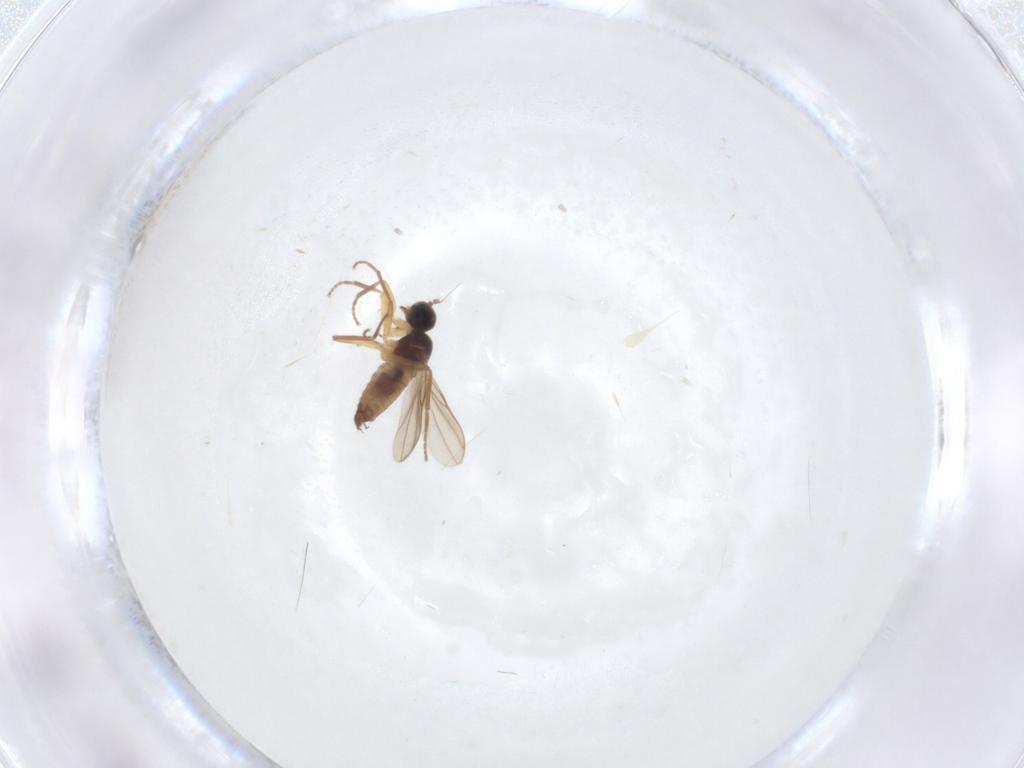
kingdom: Animalia
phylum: Arthropoda
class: Insecta
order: Diptera
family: Hybotidae
